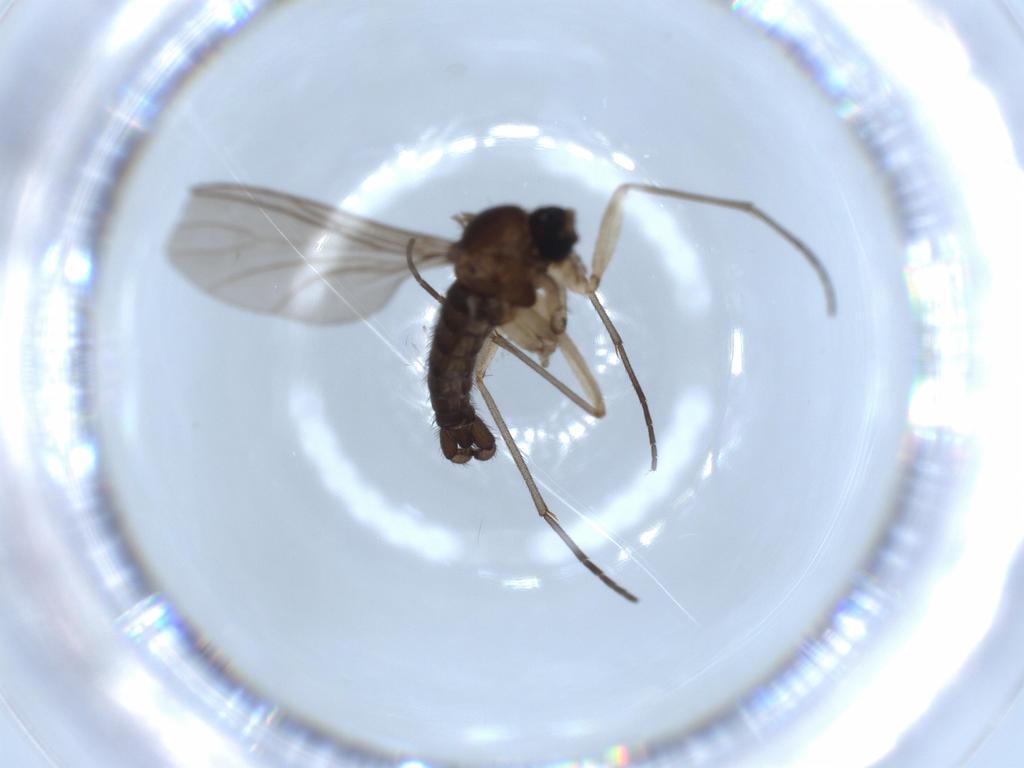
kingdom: Animalia
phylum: Arthropoda
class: Insecta
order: Diptera
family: Sciaridae
